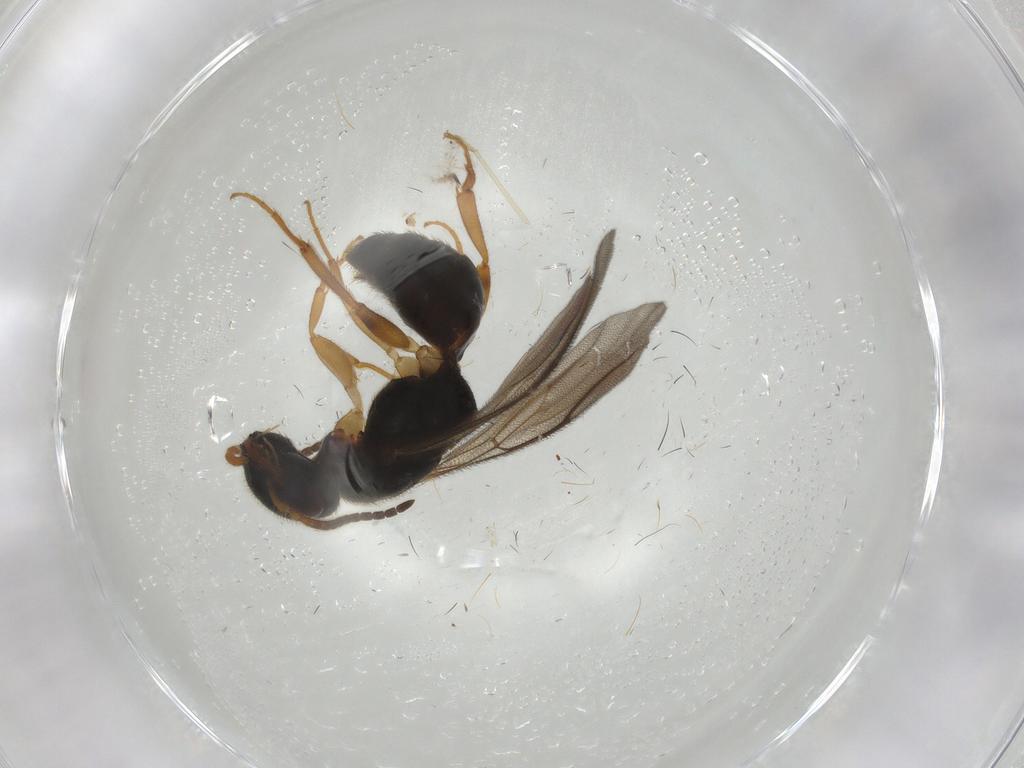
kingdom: Animalia
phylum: Arthropoda
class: Insecta
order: Hymenoptera
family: Bethylidae
